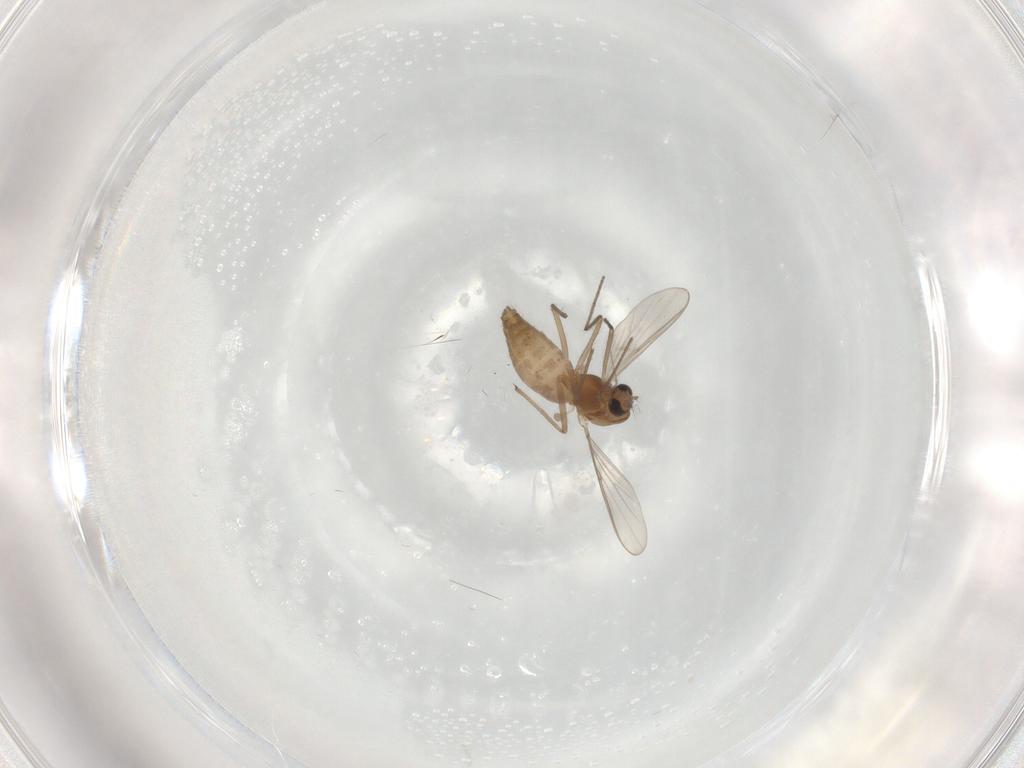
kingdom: Animalia
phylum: Arthropoda
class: Insecta
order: Diptera
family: Chironomidae
